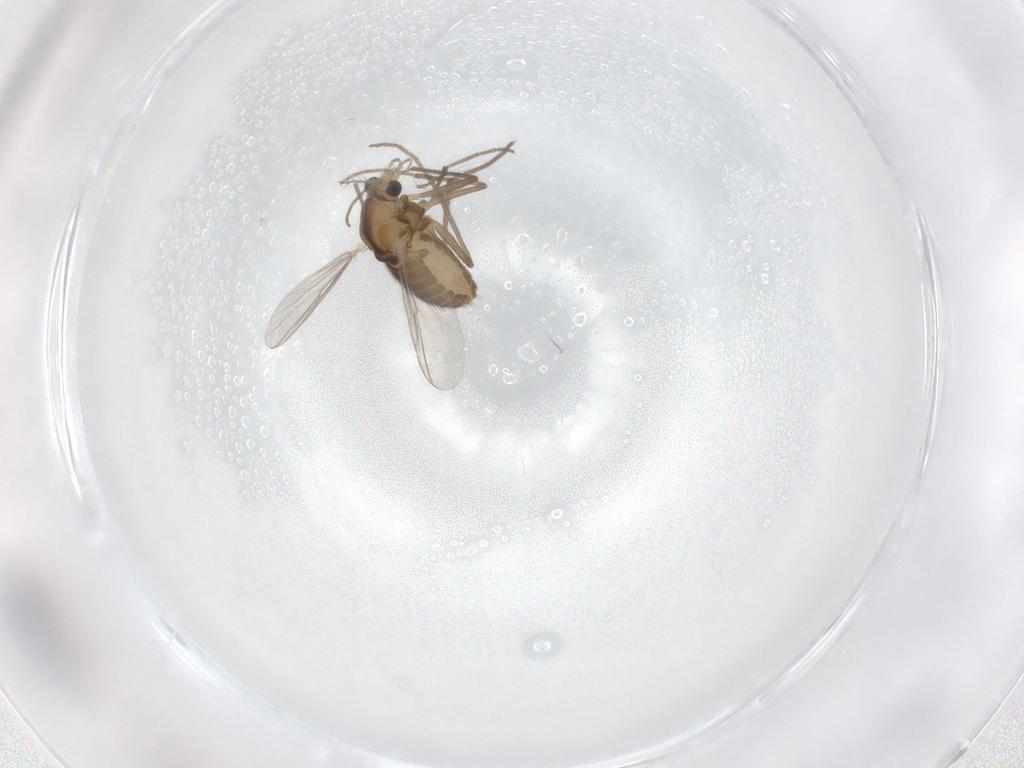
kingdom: Animalia
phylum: Arthropoda
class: Insecta
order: Diptera
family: Chironomidae
